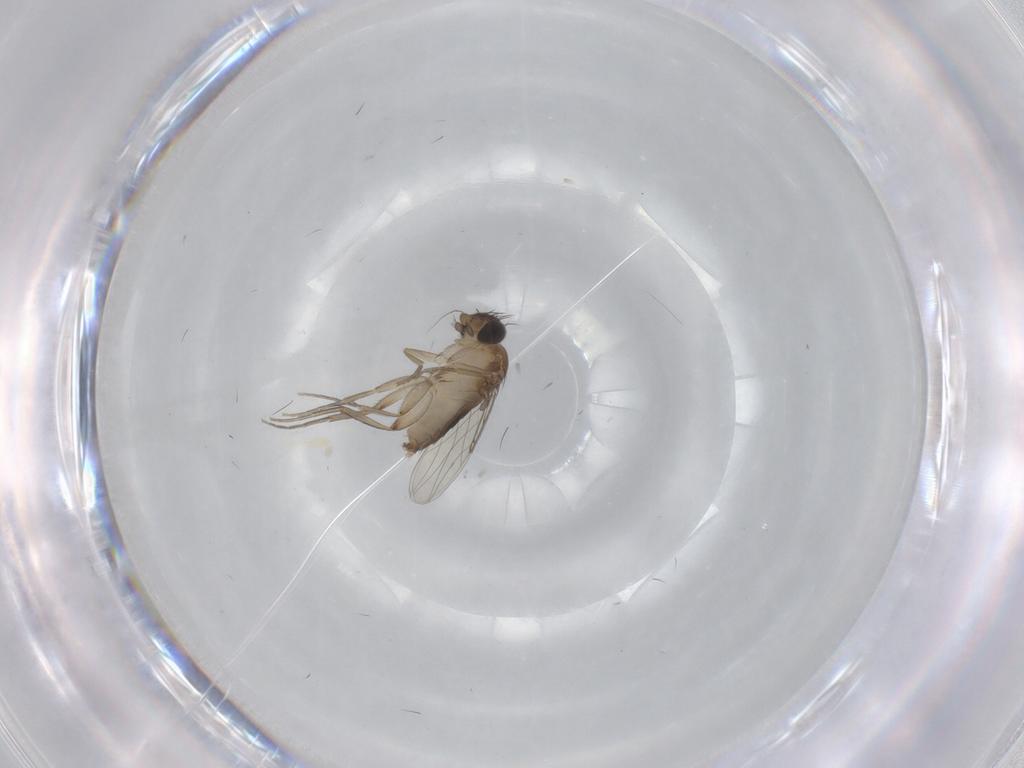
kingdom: Animalia
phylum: Arthropoda
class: Insecta
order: Diptera
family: Phoridae
